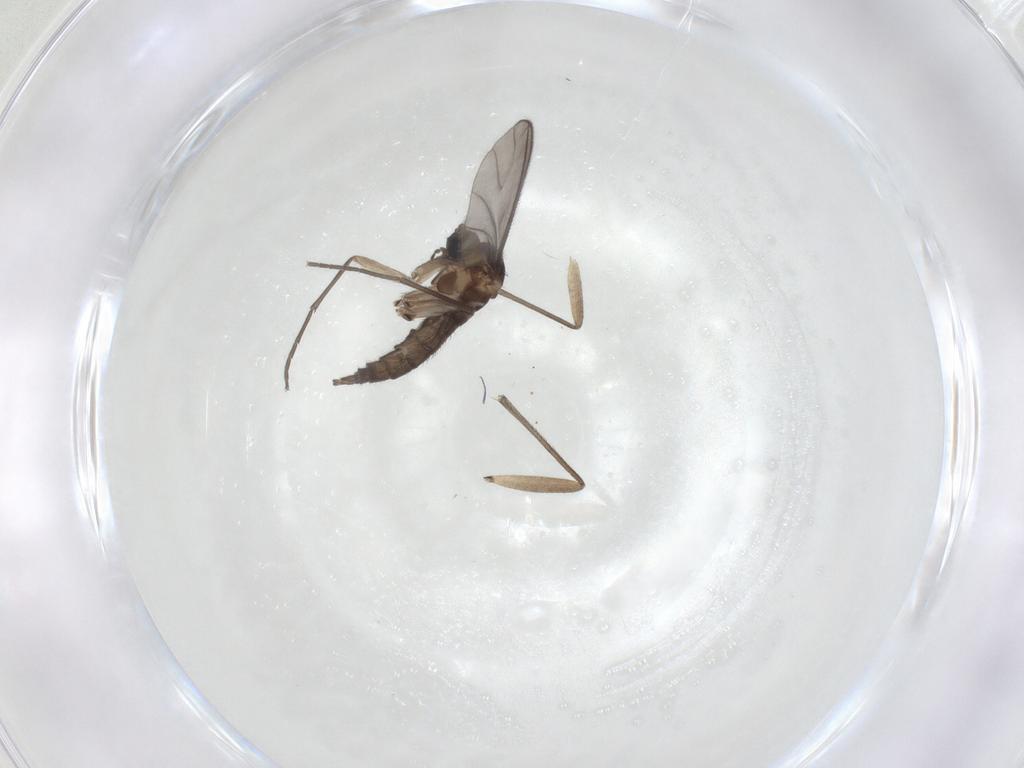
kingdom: Animalia
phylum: Arthropoda
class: Insecta
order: Diptera
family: Sciaridae
